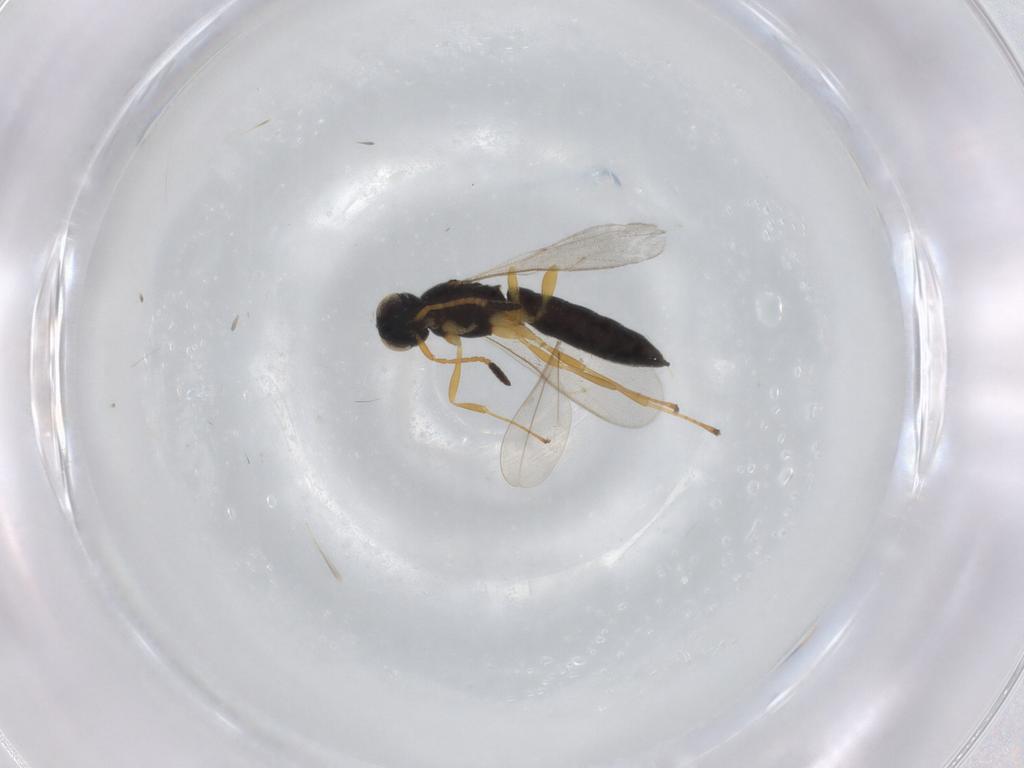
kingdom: Animalia
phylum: Arthropoda
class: Insecta
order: Hymenoptera
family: Scelionidae
